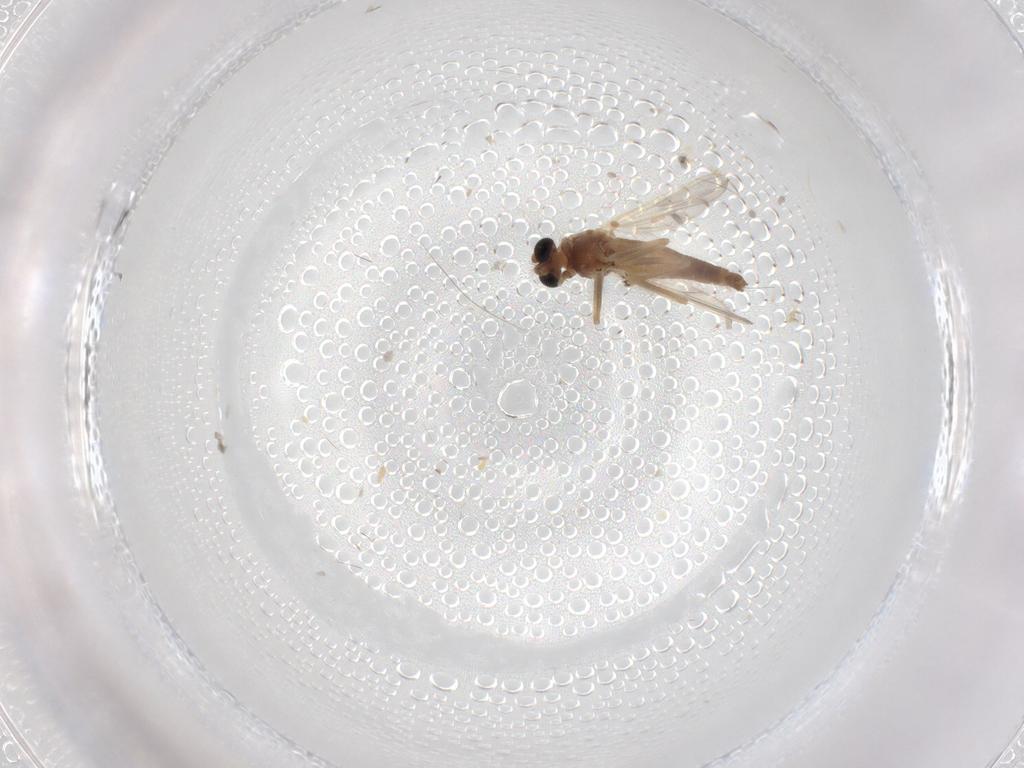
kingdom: Animalia
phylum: Arthropoda
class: Insecta
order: Diptera
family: Chironomidae
